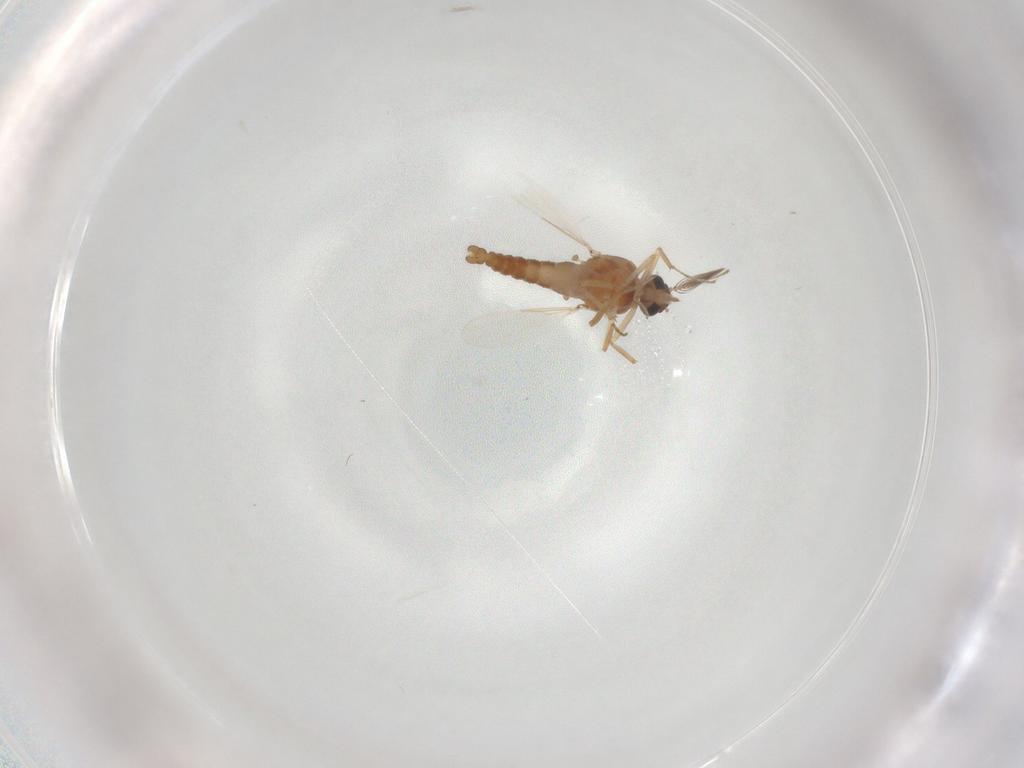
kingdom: Animalia
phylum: Arthropoda
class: Insecta
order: Diptera
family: Ceratopogonidae
